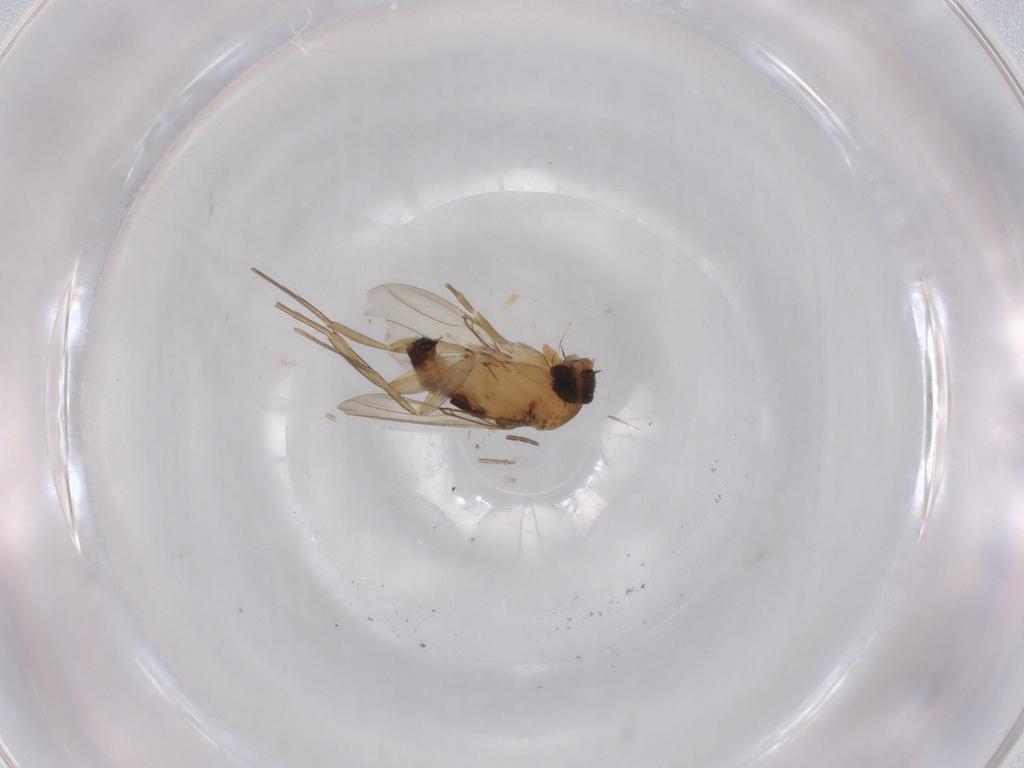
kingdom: Animalia
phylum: Arthropoda
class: Insecta
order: Diptera
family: Phoridae
